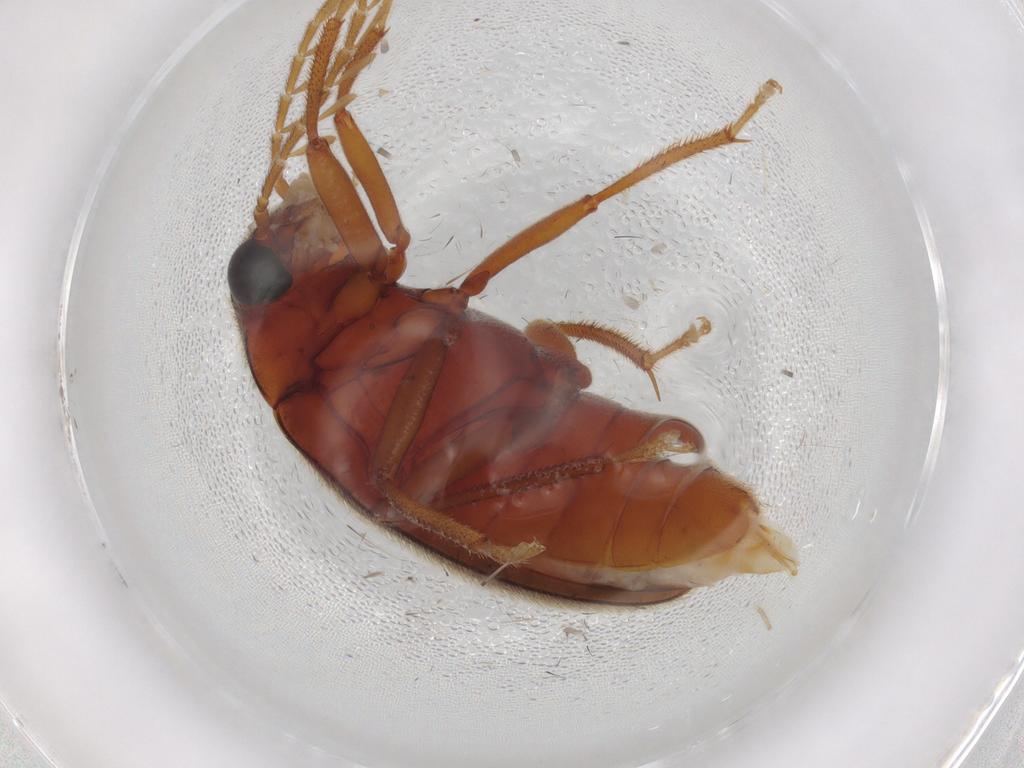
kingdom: Animalia
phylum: Arthropoda
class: Insecta
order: Coleoptera
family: Ptilodactylidae
